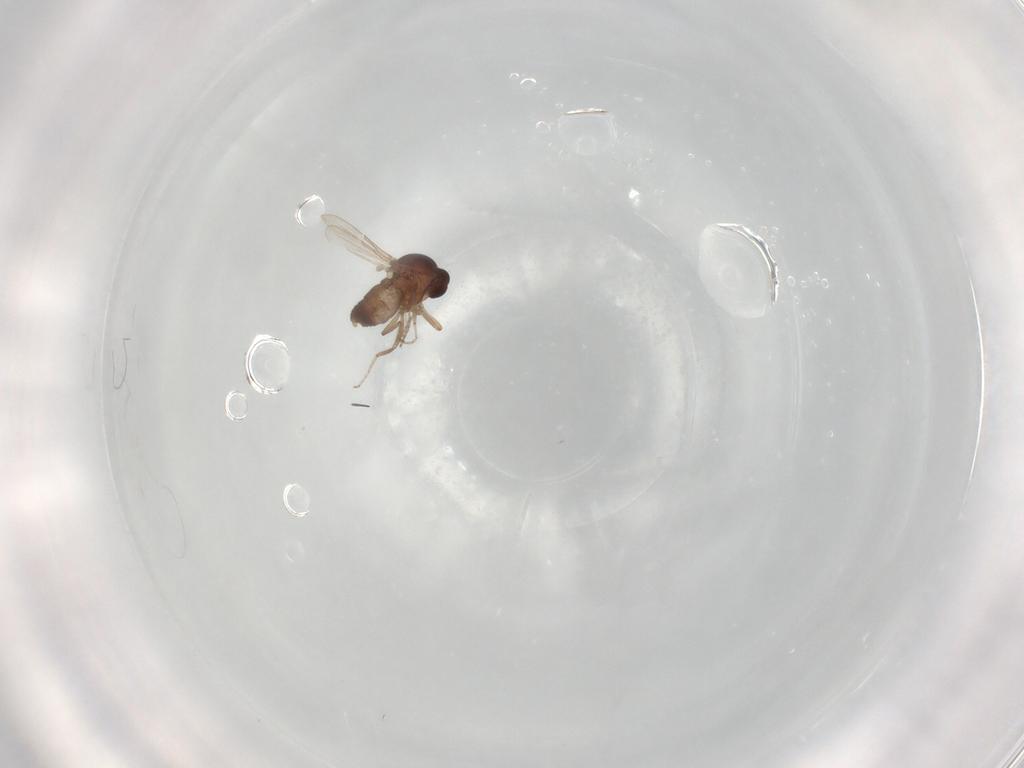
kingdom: Animalia
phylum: Arthropoda
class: Insecta
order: Diptera
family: Ceratopogonidae
